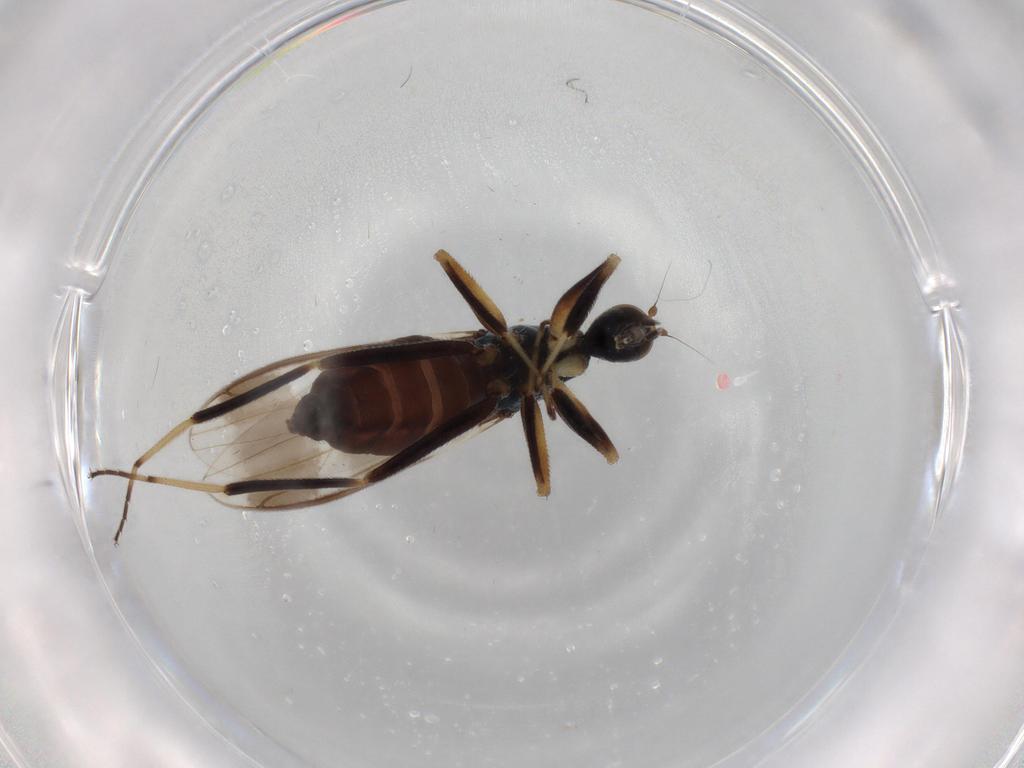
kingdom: Animalia
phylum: Arthropoda
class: Insecta
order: Diptera
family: Hybotidae
